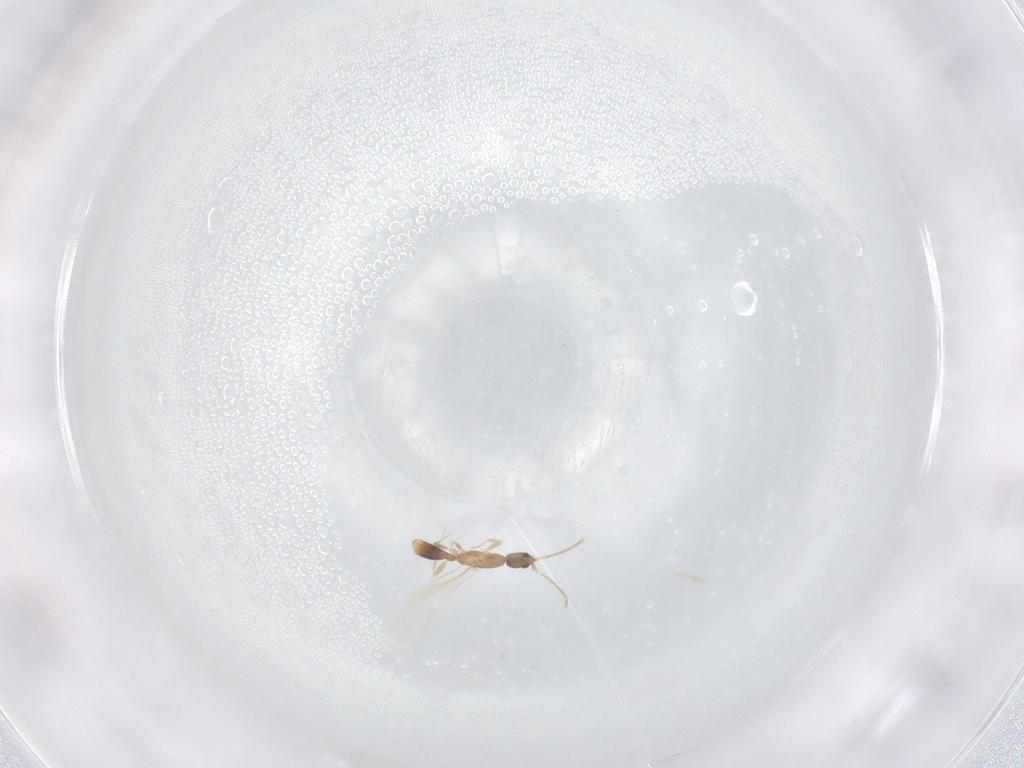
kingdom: Animalia
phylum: Arthropoda
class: Insecta
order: Hymenoptera
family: Formicidae
